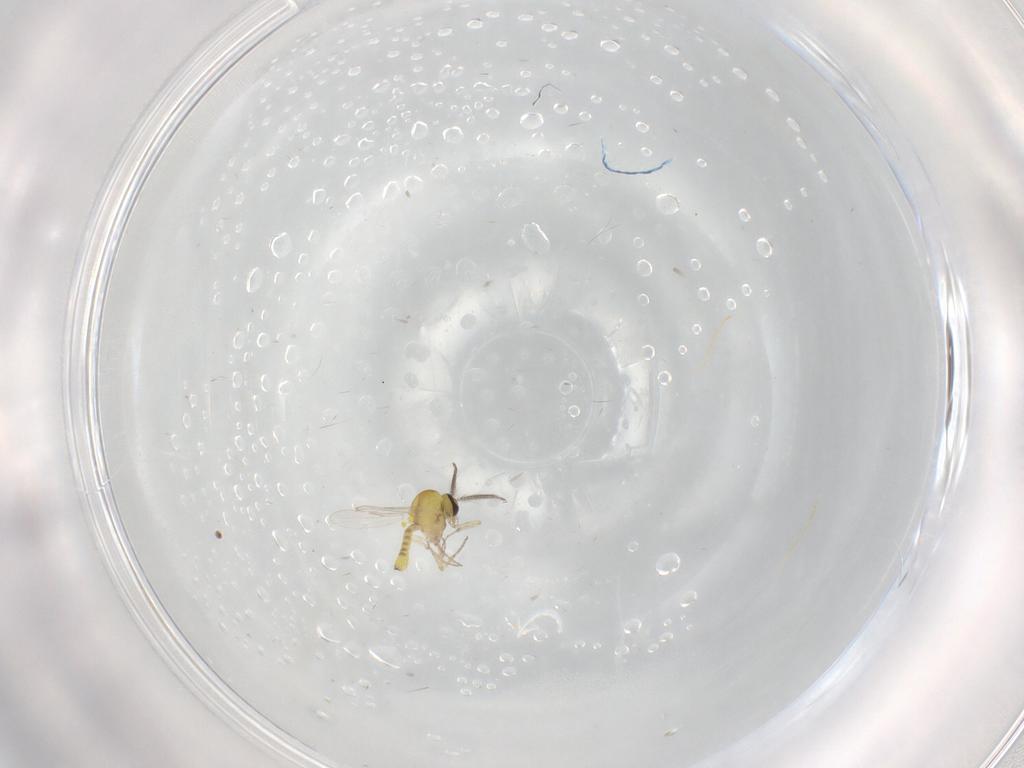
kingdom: Animalia
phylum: Arthropoda
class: Insecta
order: Diptera
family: Ceratopogonidae
